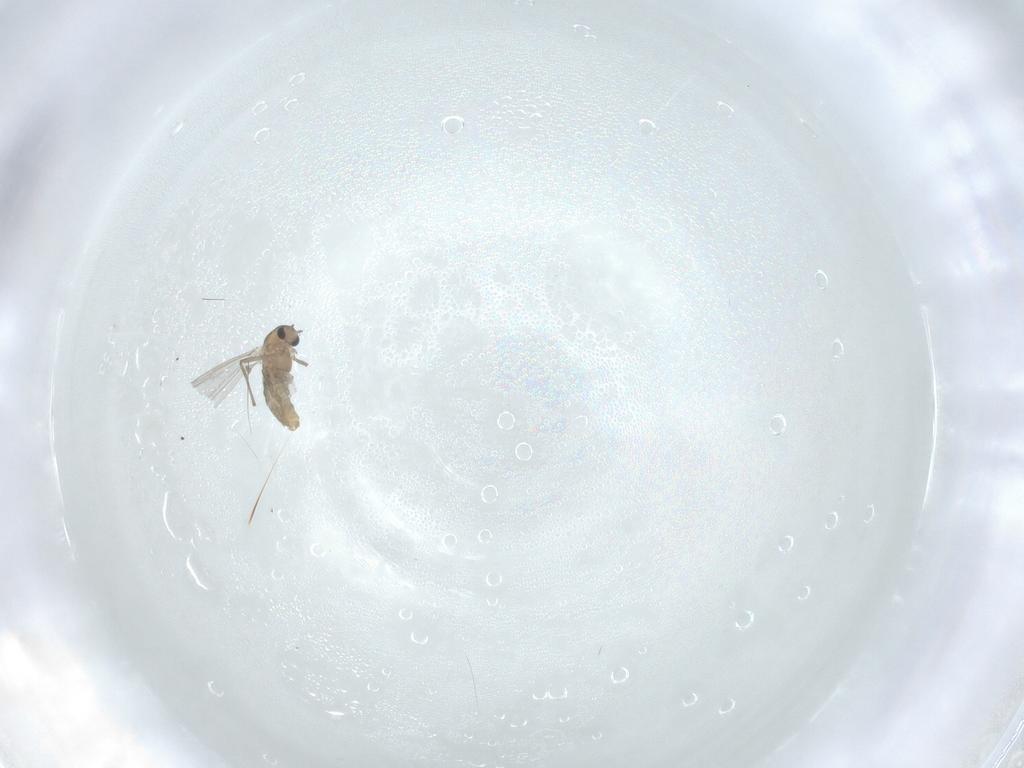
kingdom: Animalia
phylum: Arthropoda
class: Insecta
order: Diptera
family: Chironomidae
